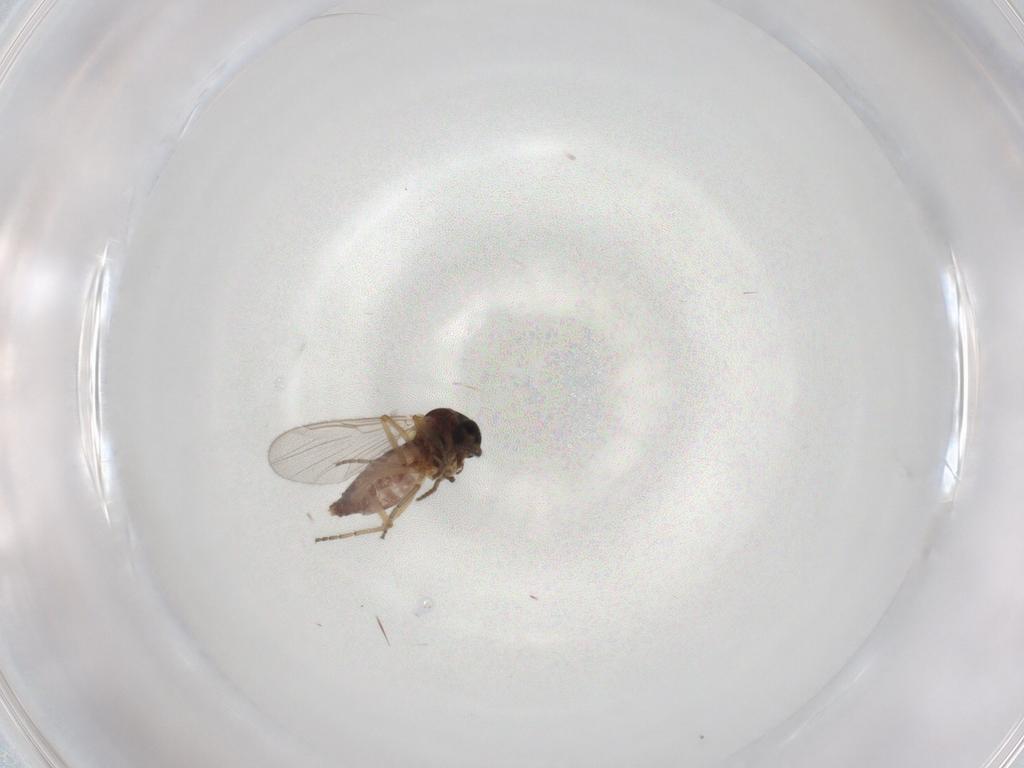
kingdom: Animalia
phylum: Arthropoda
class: Insecta
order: Diptera
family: Ceratopogonidae
